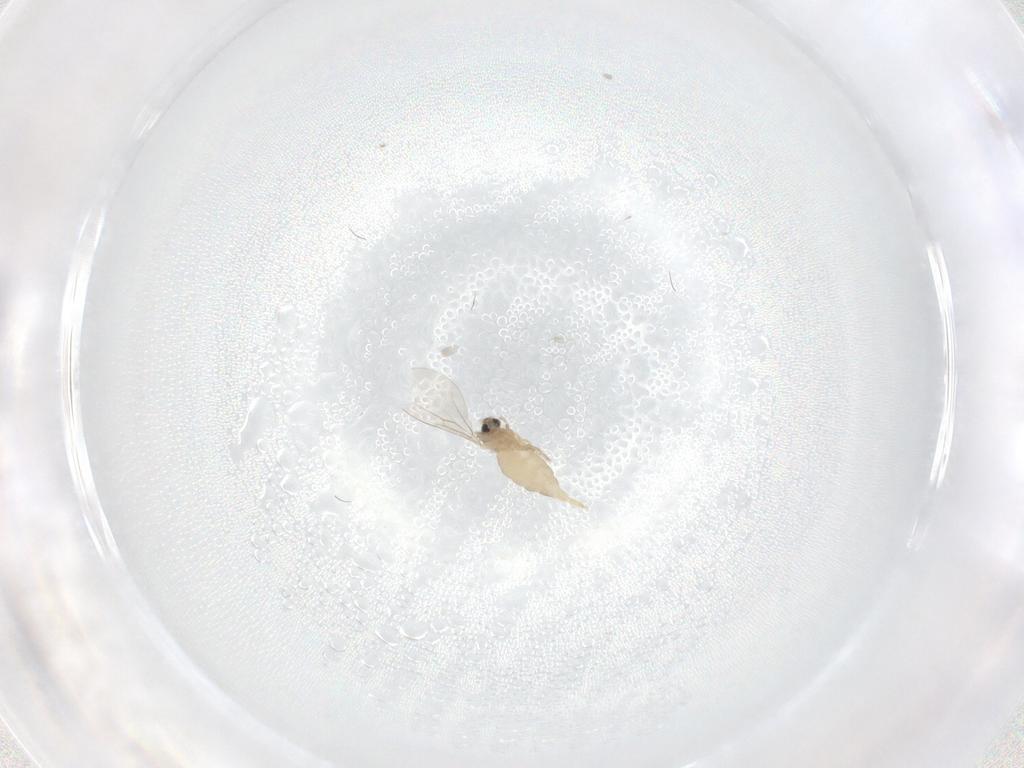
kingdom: Animalia
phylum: Arthropoda
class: Insecta
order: Diptera
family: Cecidomyiidae
